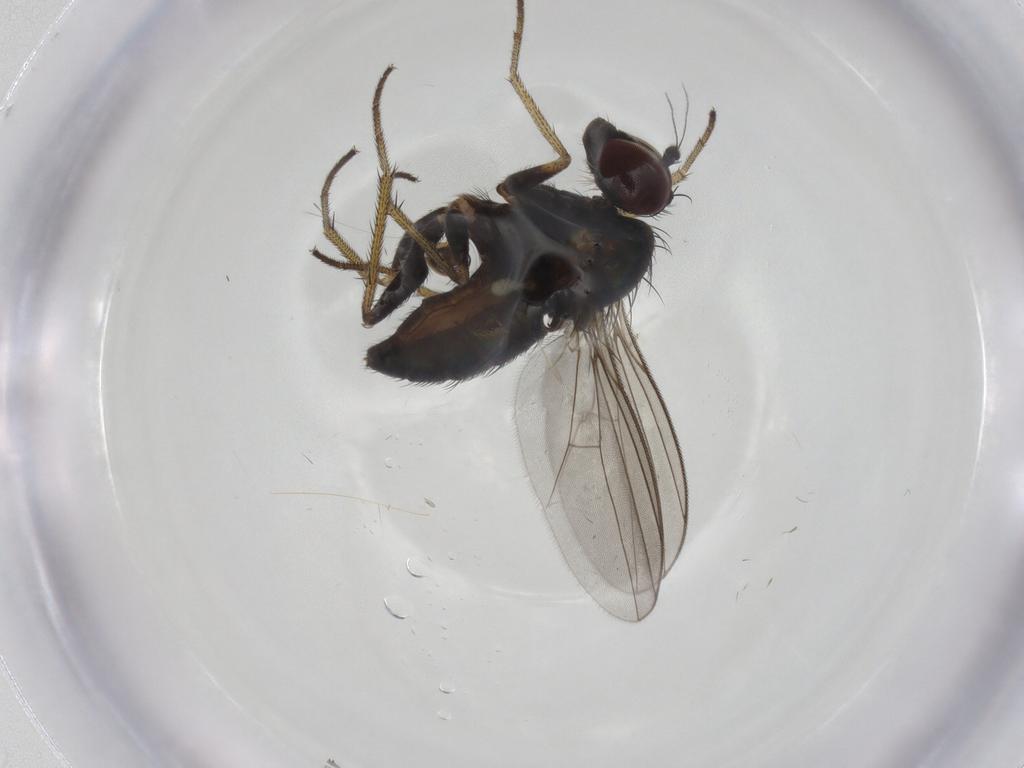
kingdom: Animalia
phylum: Arthropoda
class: Insecta
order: Diptera
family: Dolichopodidae
